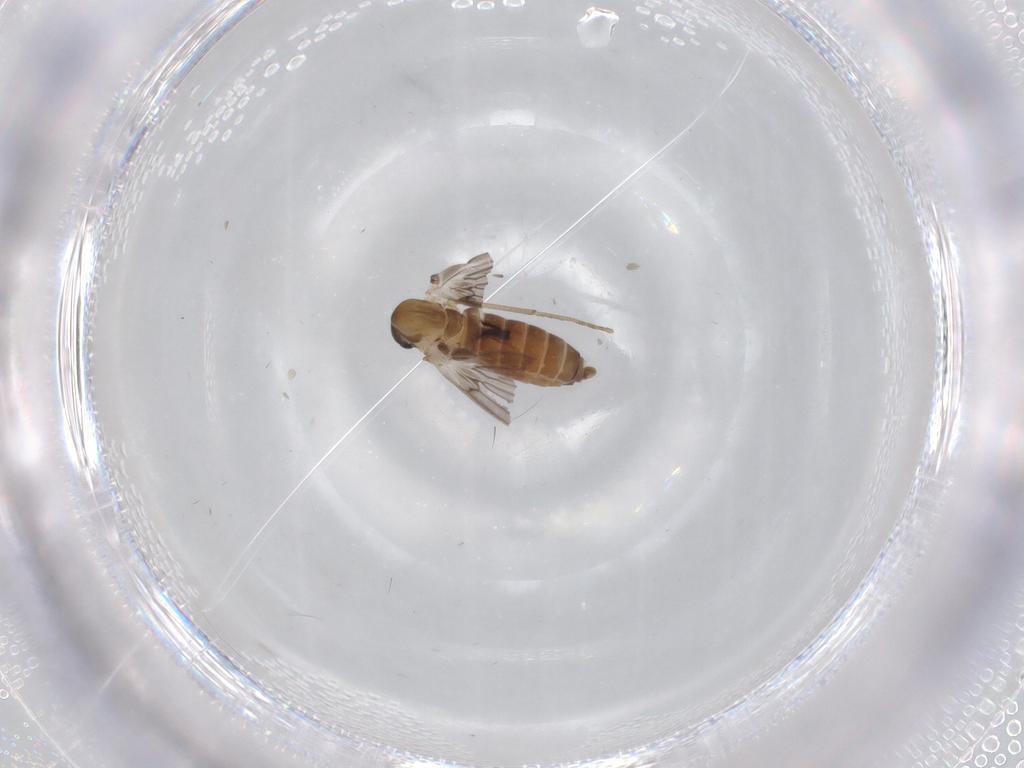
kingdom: Animalia
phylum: Arthropoda
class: Insecta
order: Diptera
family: Cecidomyiidae
